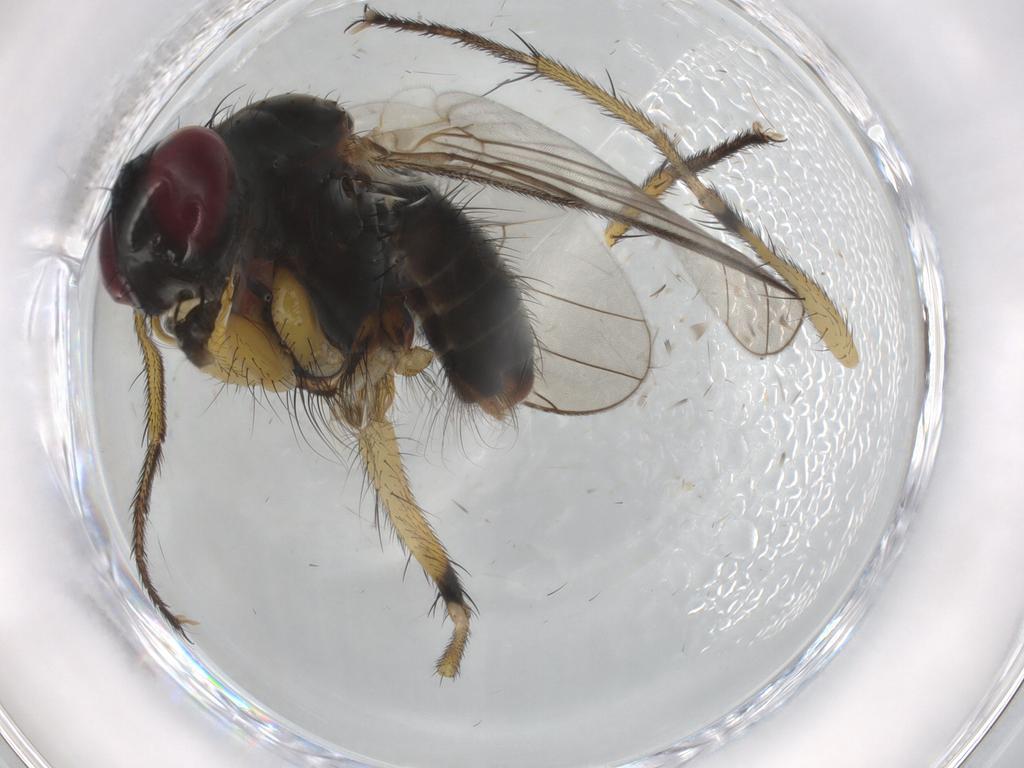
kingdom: Animalia
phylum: Arthropoda
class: Insecta
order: Diptera
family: Muscidae
